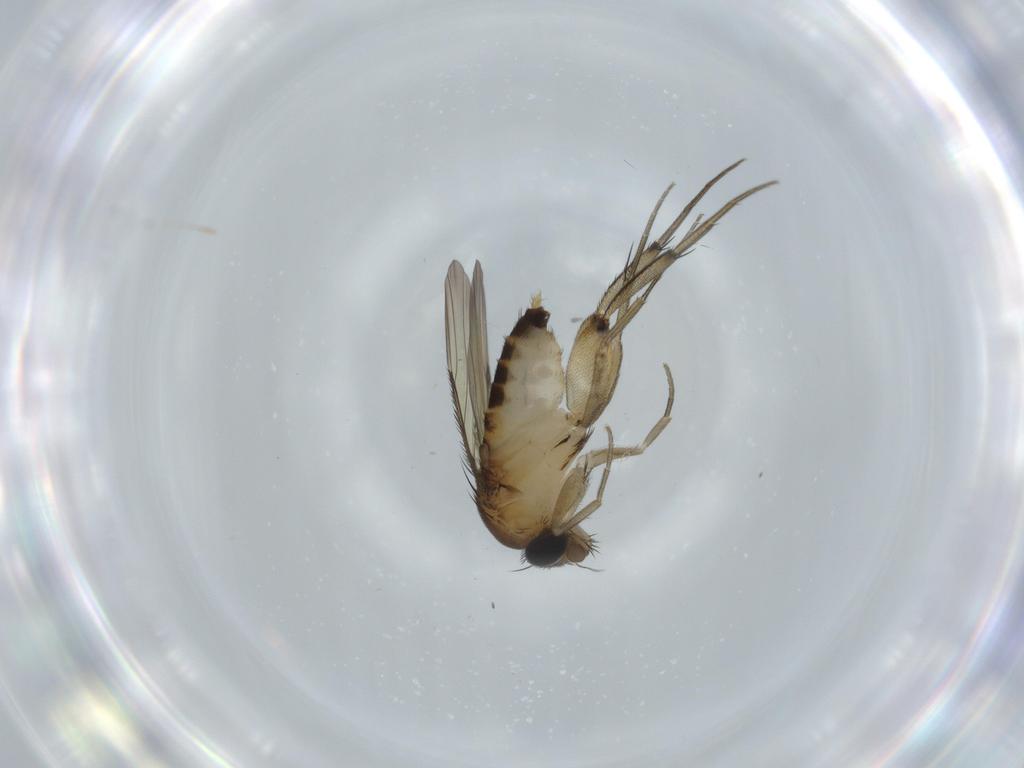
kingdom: Animalia
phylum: Arthropoda
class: Insecta
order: Diptera
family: Phoridae
